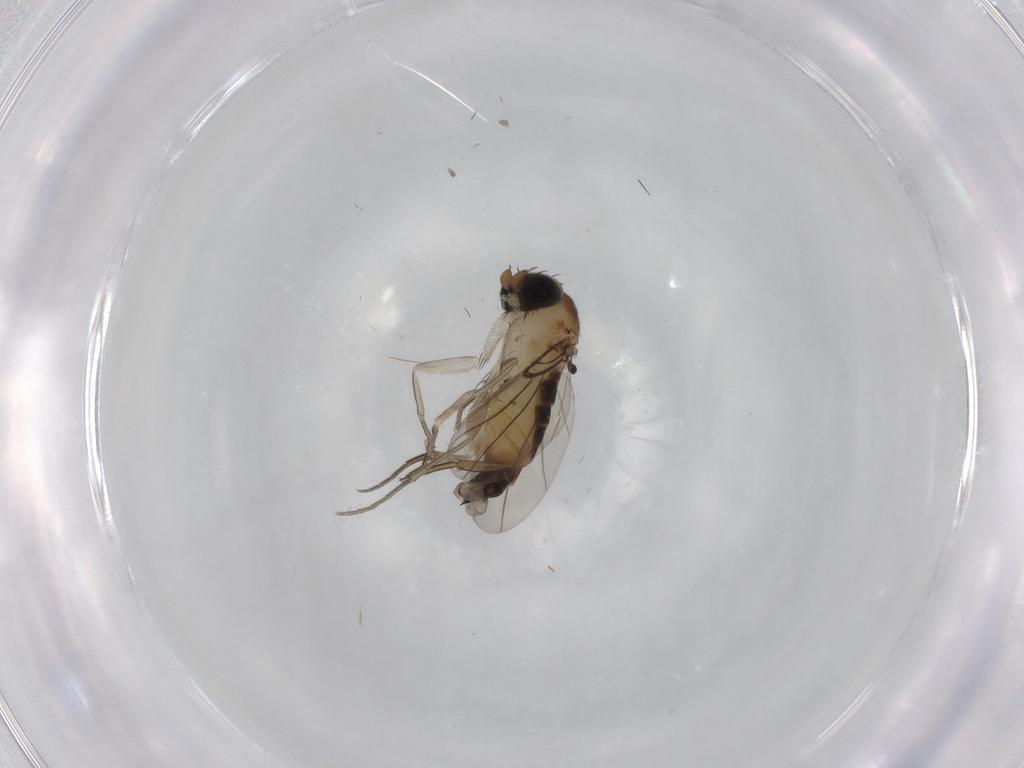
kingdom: Animalia
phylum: Arthropoda
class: Insecta
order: Diptera
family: Phoridae
